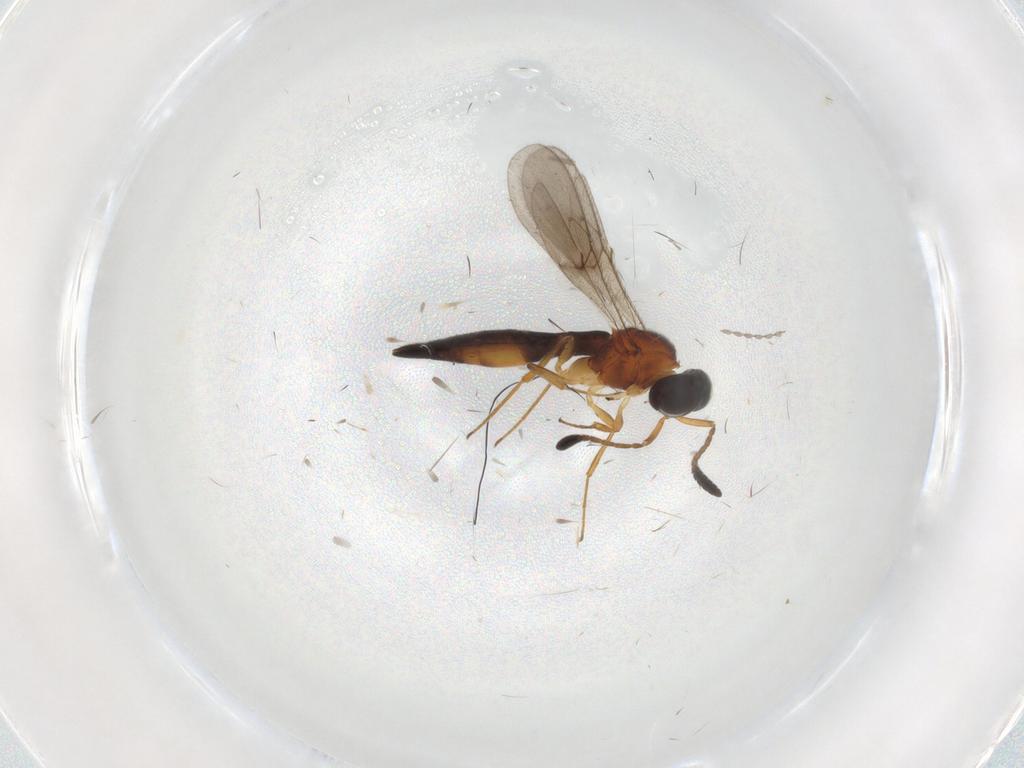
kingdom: Animalia
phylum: Arthropoda
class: Insecta
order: Hymenoptera
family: Scelionidae
